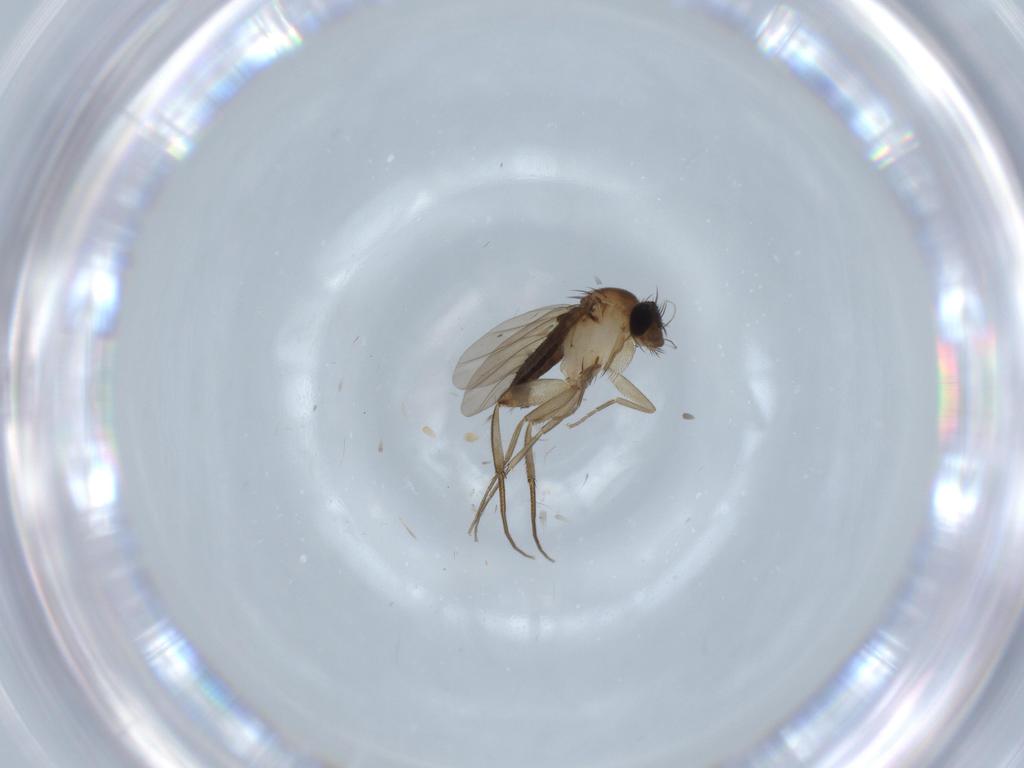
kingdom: Animalia
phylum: Arthropoda
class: Insecta
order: Diptera
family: Phoridae
